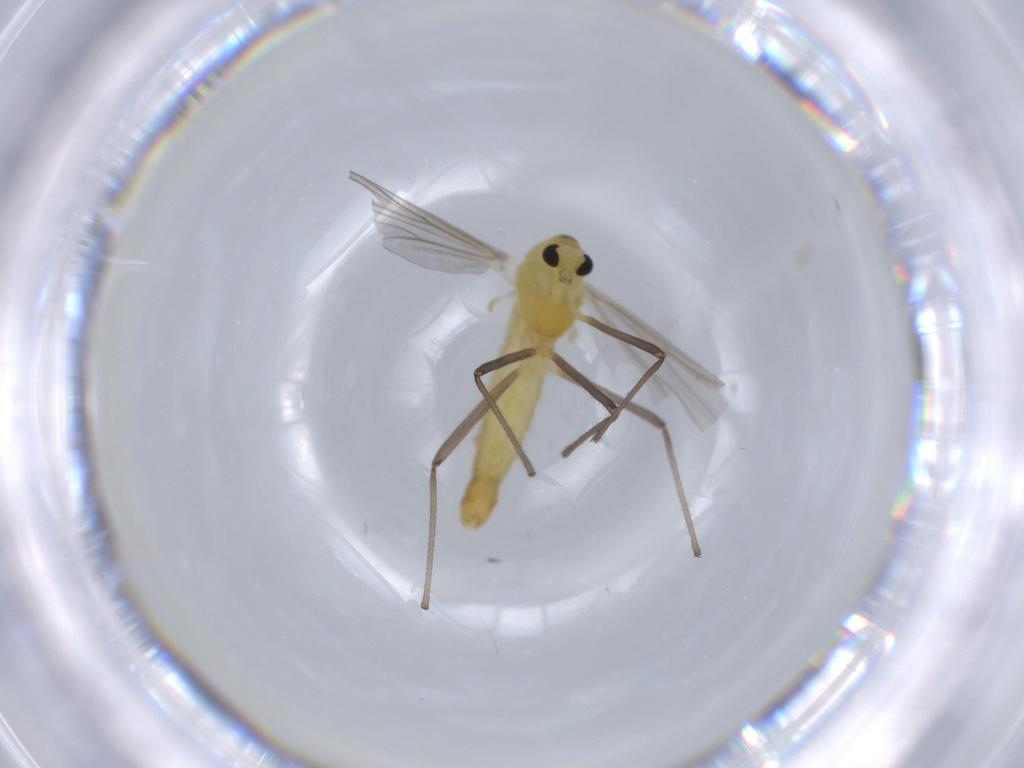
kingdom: Animalia
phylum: Arthropoda
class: Insecta
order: Diptera
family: Chironomidae
